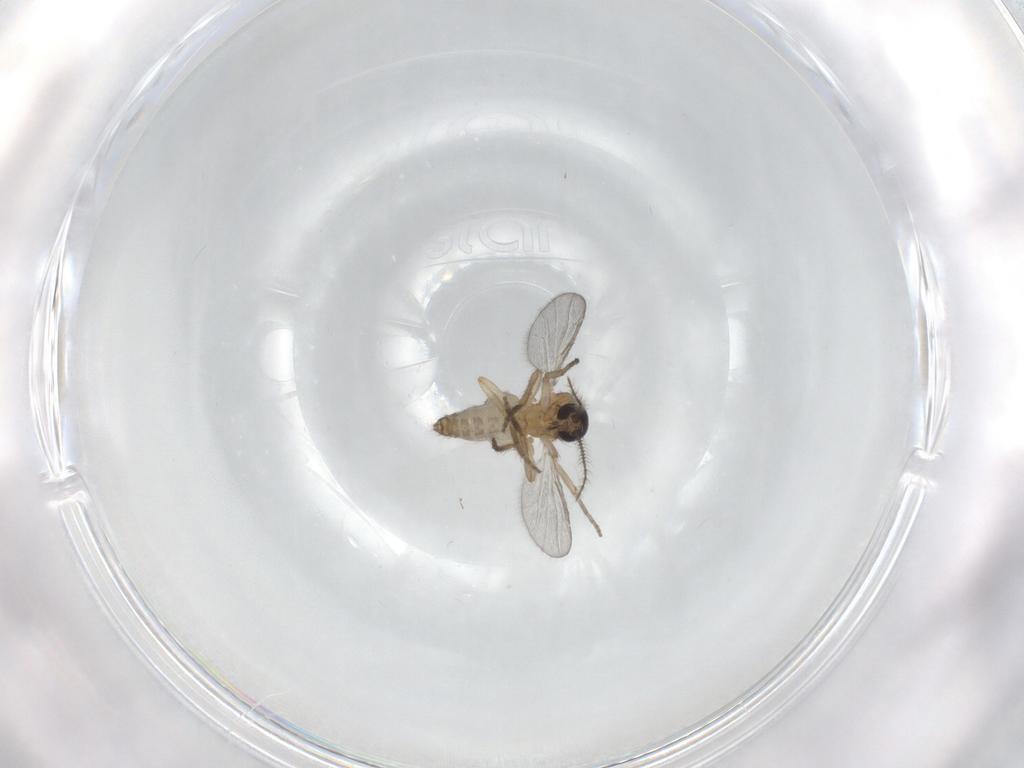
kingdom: Animalia
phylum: Arthropoda
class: Insecta
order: Diptera
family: Ceratopogonidae
